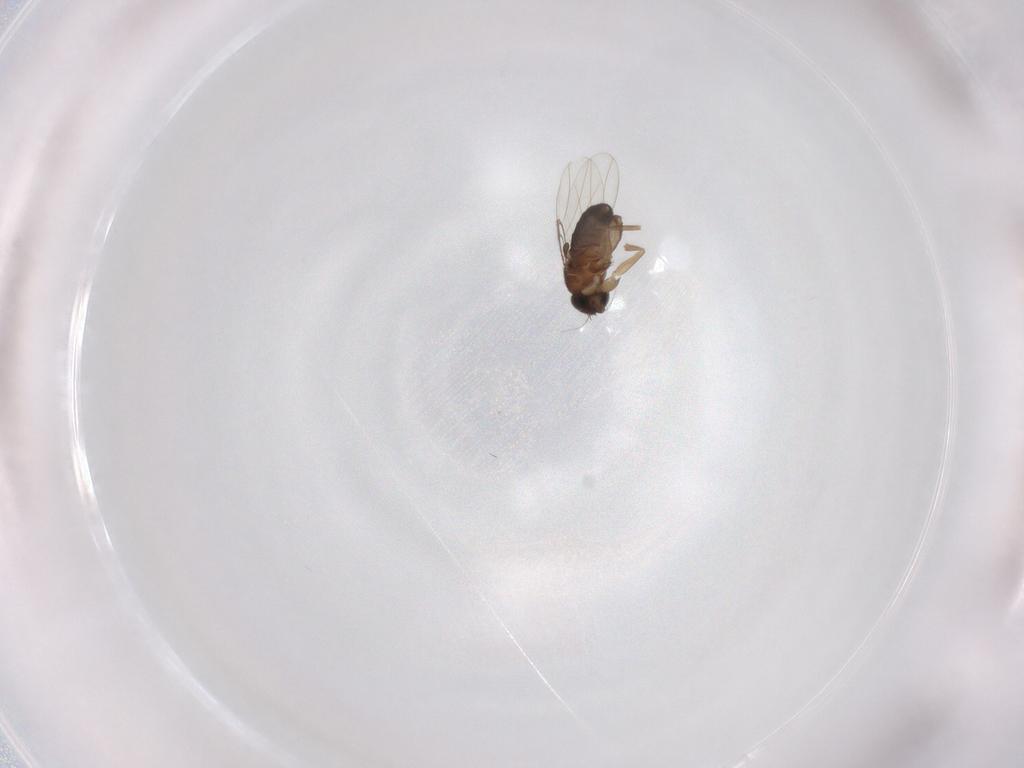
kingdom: Animalia
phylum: Arthropoda
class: Insecta
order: Diptera
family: Phoridae
